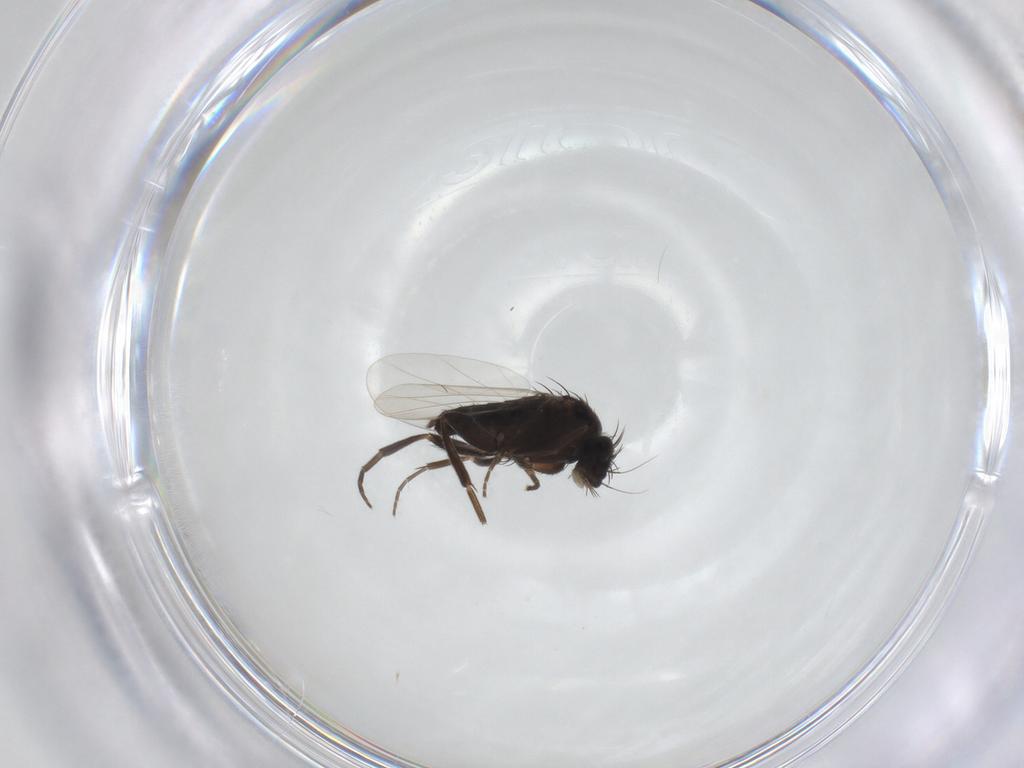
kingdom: Animalia
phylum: Arthropoda
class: Insecta
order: Diptera
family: Phoridae
